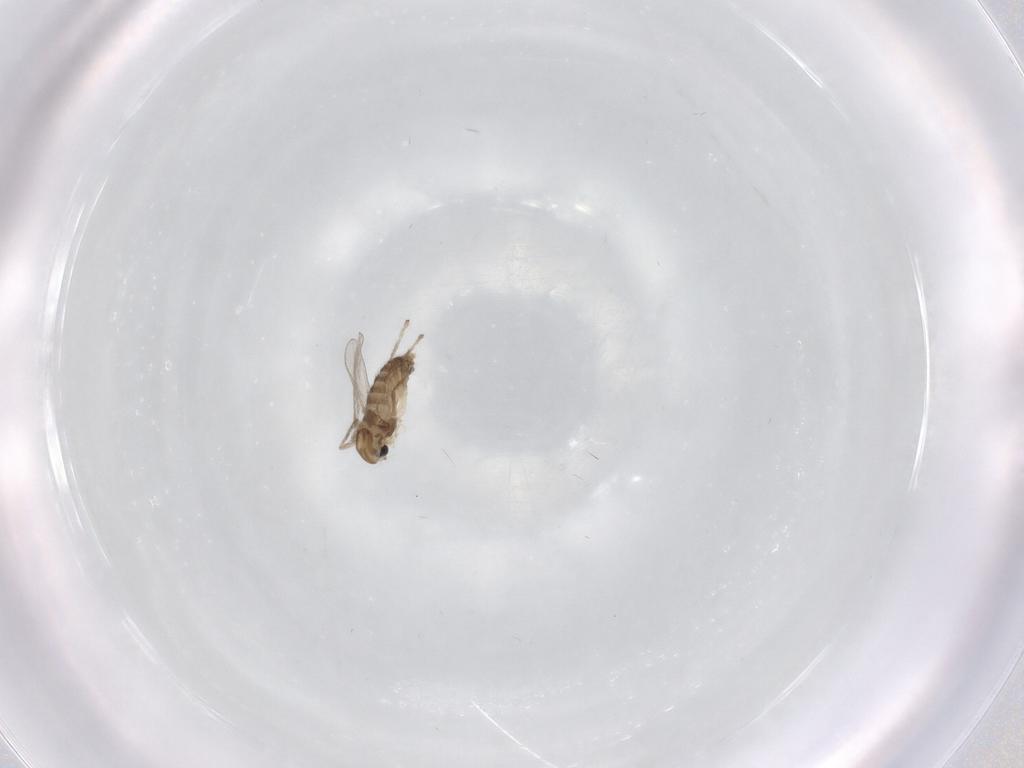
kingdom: Animalia
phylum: Arthropoda
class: Insecta
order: Diptera
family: Chironomidae
